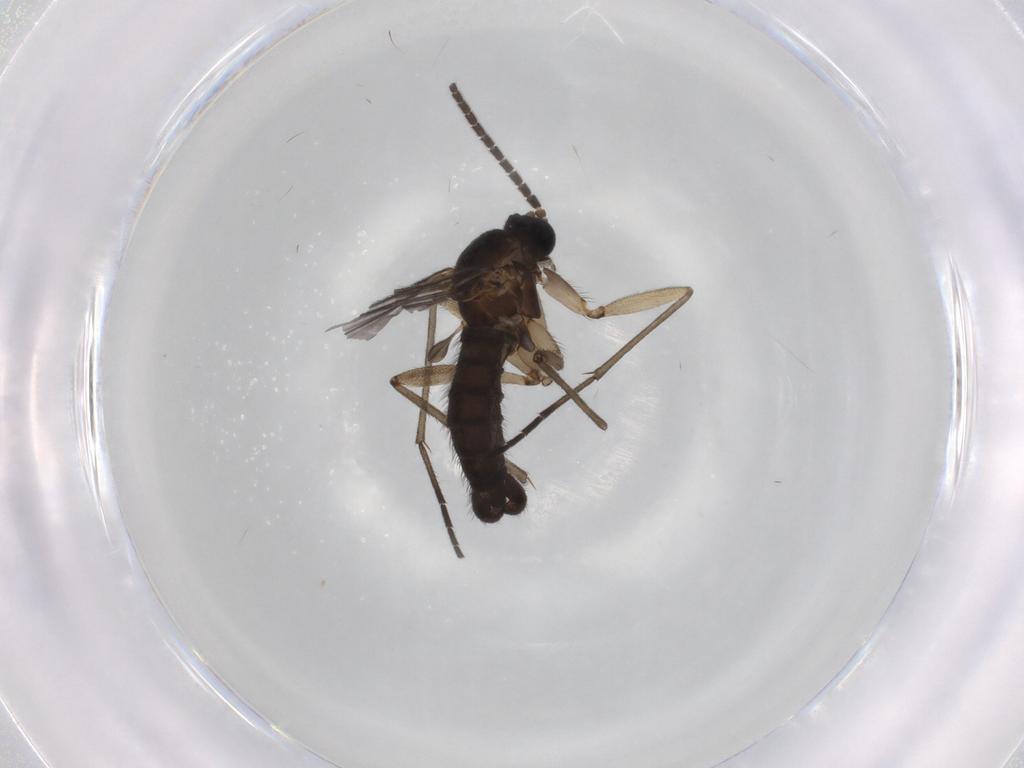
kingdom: Animalia
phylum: Arthropoda
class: Insecta
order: Diptera
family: Sciaridae
